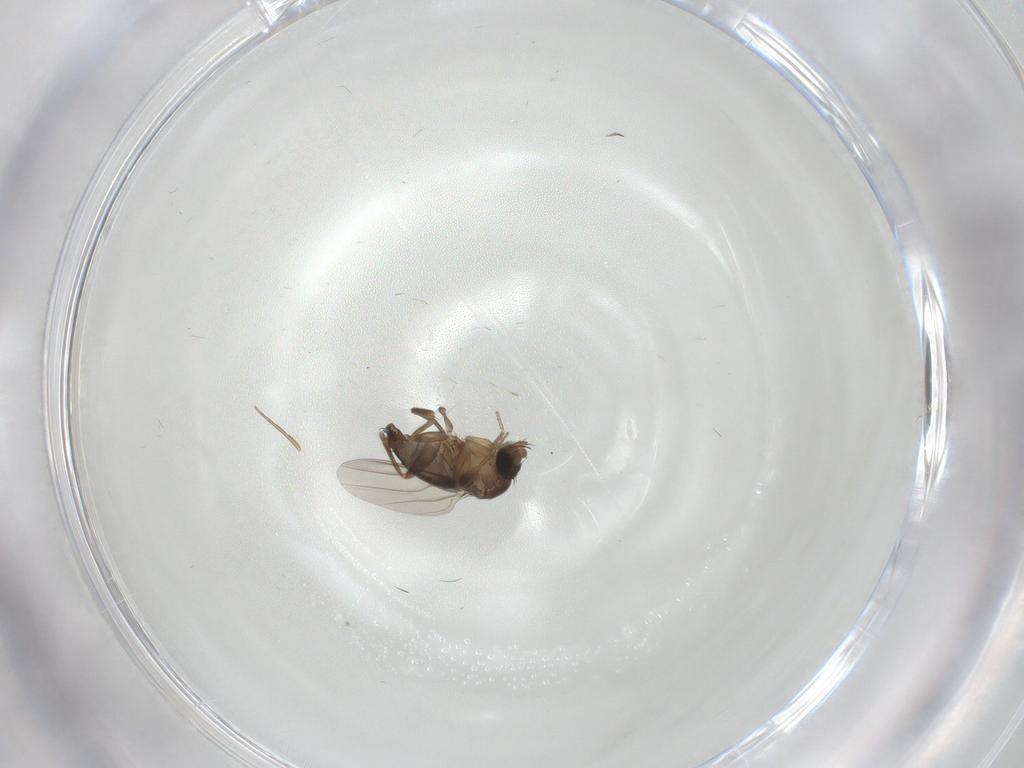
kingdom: Animalia
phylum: Arthropoda
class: Insecta
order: Diptera
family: Phoridae
